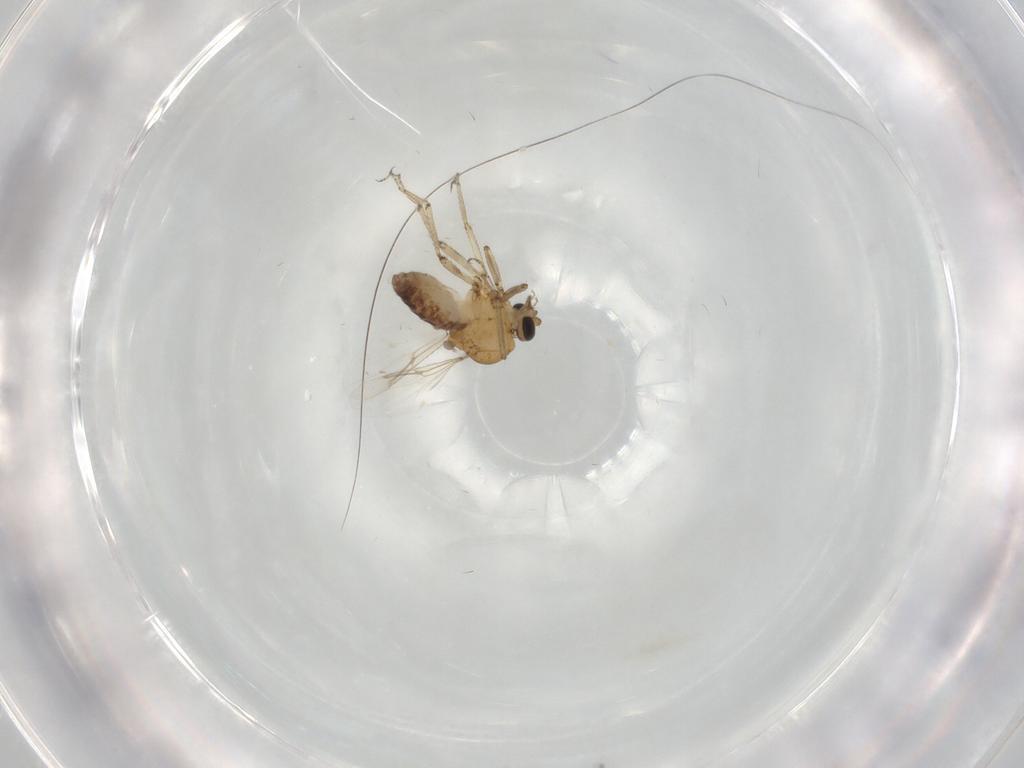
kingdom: Animalia
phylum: Arthropoda
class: Insecta
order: Diptera
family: Ceratopogonidae
